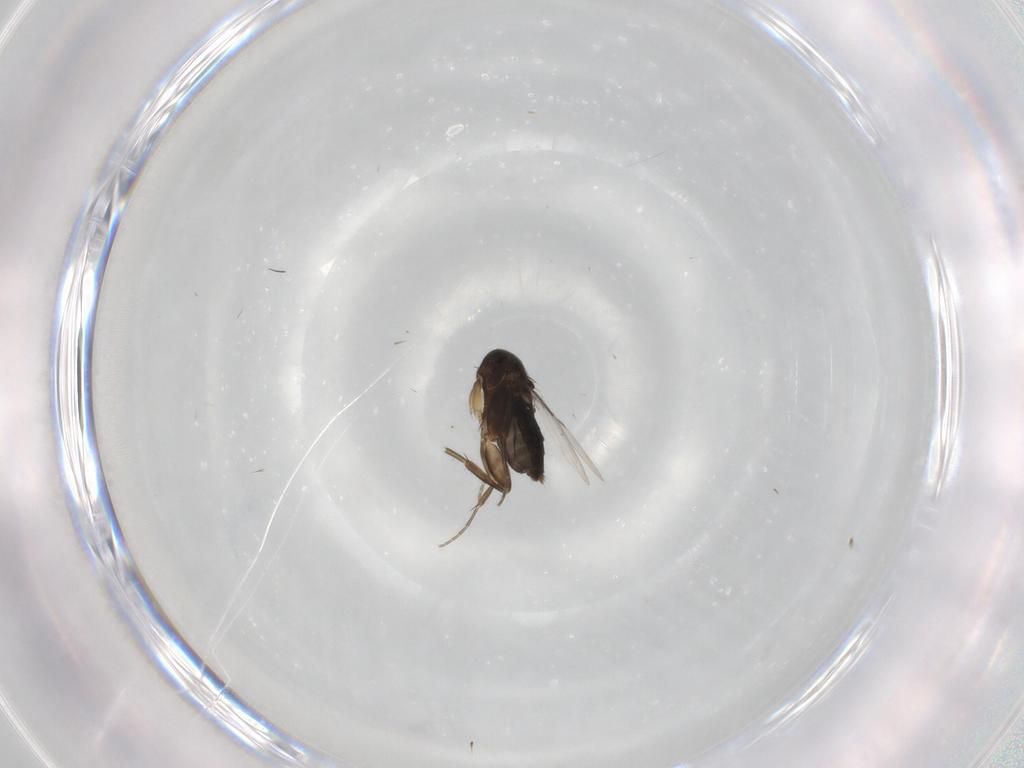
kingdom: Animalia
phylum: Arthropoda
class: Insecta
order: Diptera
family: Phoridae
